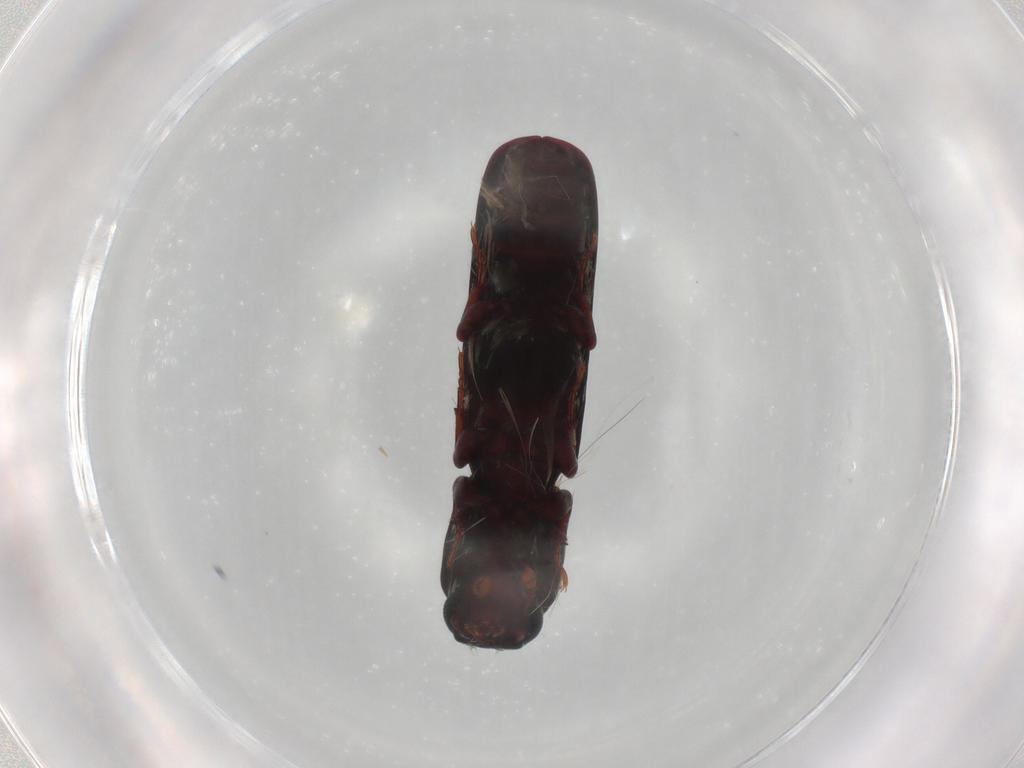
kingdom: Animalia
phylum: Arthropoda
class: Insecta
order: Coleoptera
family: Zopheridae
